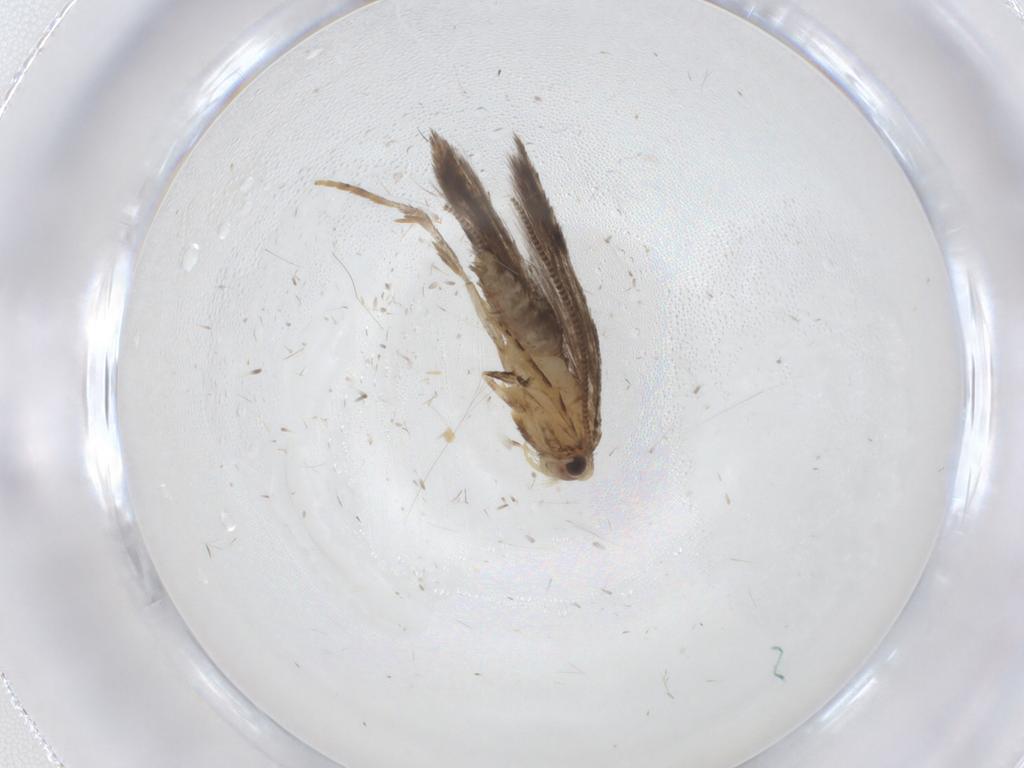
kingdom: Animalia
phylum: Arthropoda
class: Insecta
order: Lepidoptera
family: Tineidae
